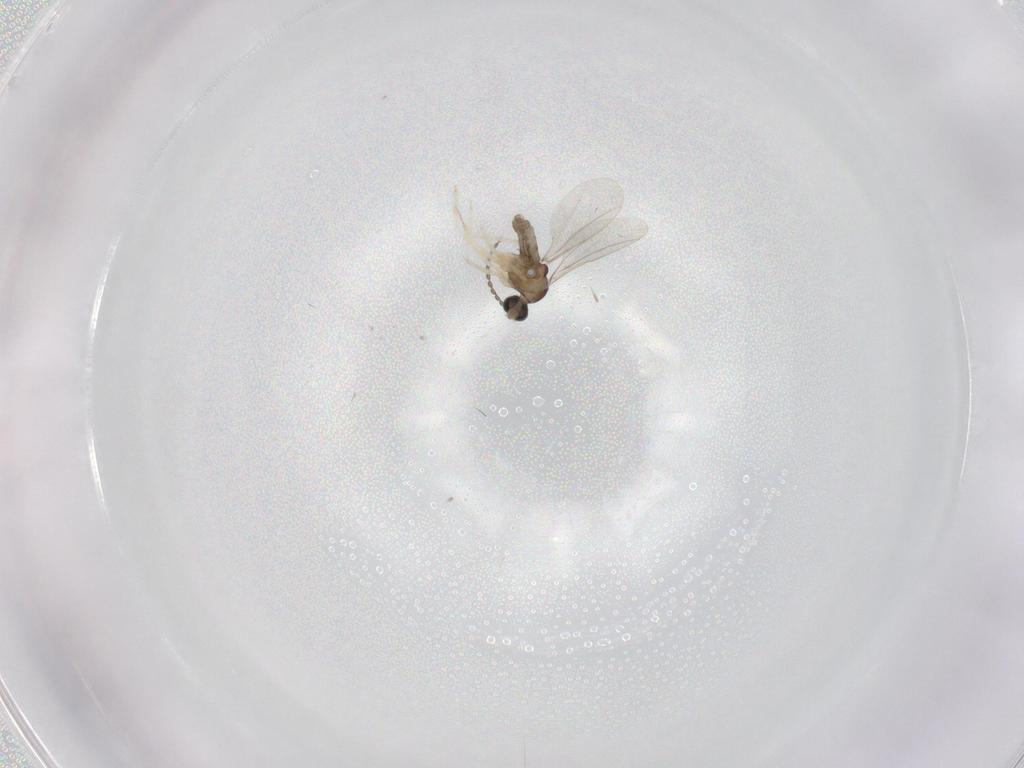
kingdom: Animalia
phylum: Arthropoda
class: Insecta
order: Diptera
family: Cecidomyiidae
